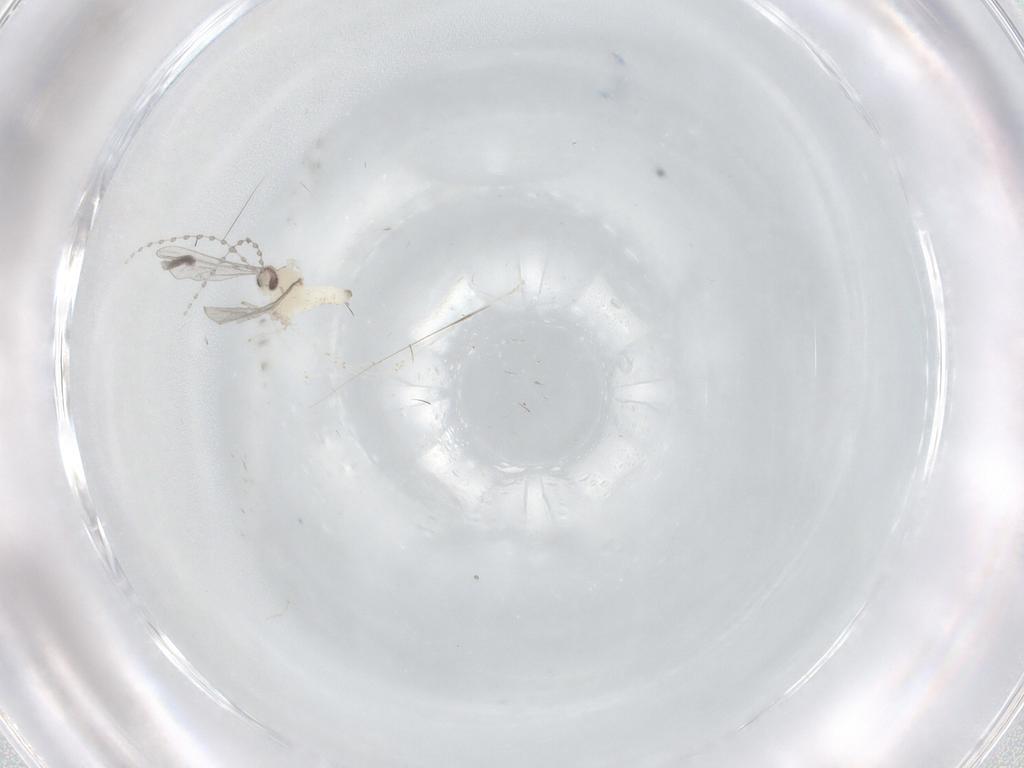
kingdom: Animalia
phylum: Arthropoda
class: Insecta
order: Diptera
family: Cecidomyiidae
